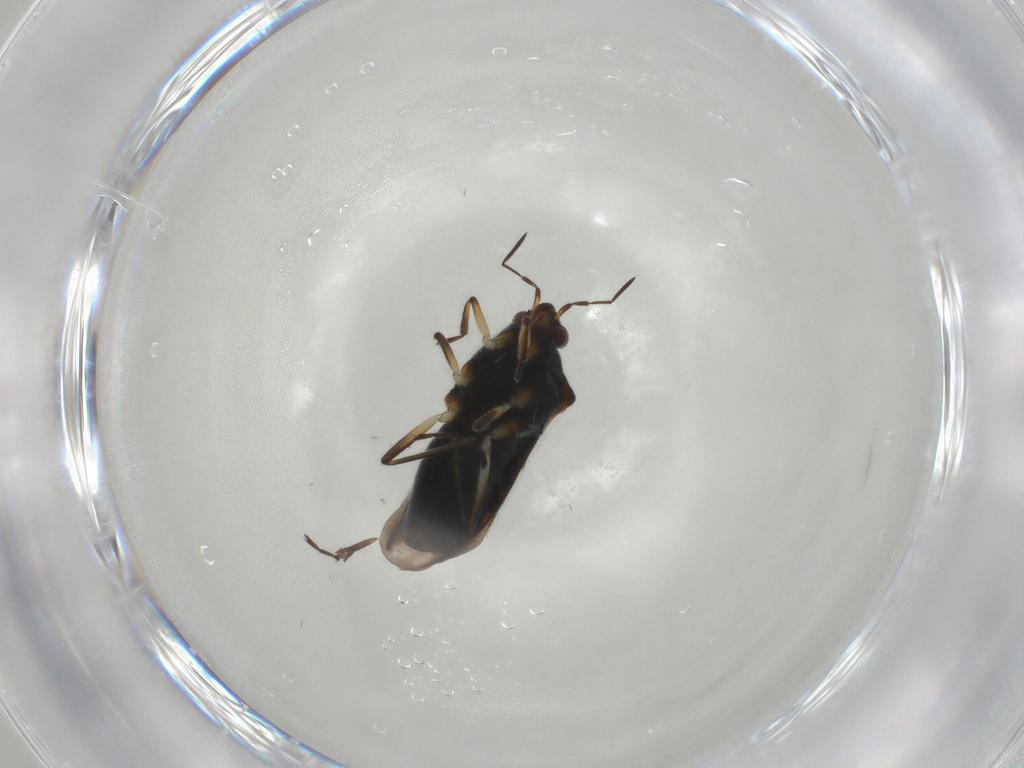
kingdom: Animalia
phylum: Arthropoda
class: Insecta
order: Hemiptera
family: Veliidae
